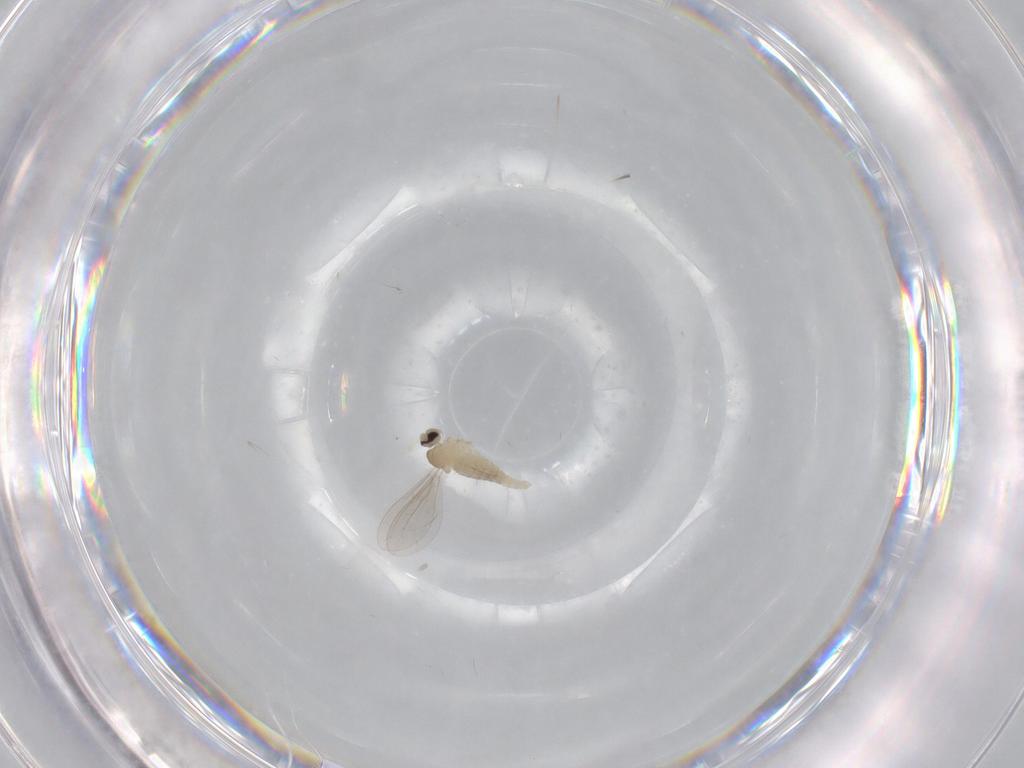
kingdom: Animalia
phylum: Arthropoda
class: Insecta
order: Diptera
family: Cecidomyiidae
